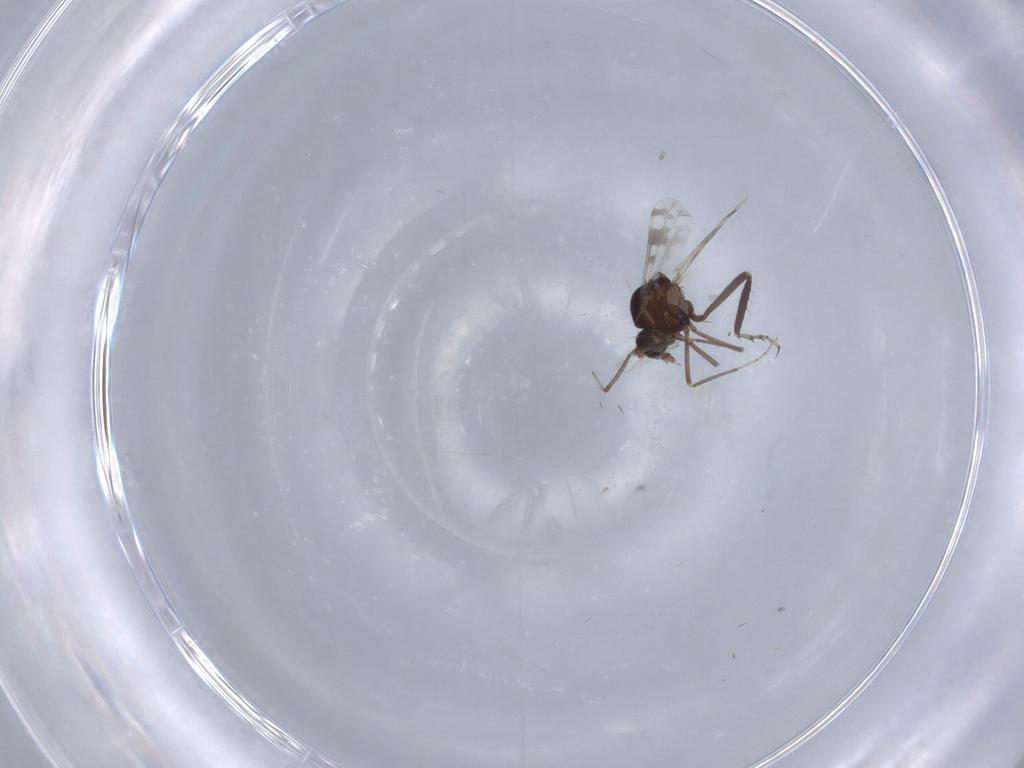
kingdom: Animalia
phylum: Arthropoda
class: Insecta
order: Diptera
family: Ceratopogonidae
